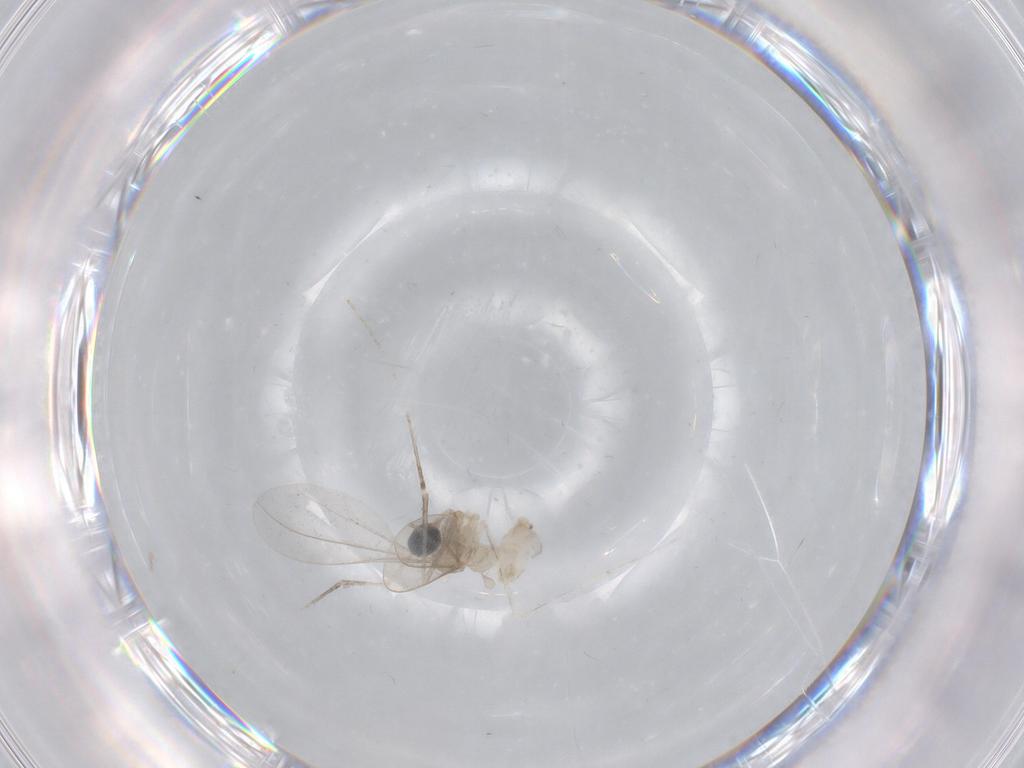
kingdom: Animalia
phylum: Arthropoda
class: Insecta
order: Diptera
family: Cecidomyiidae
